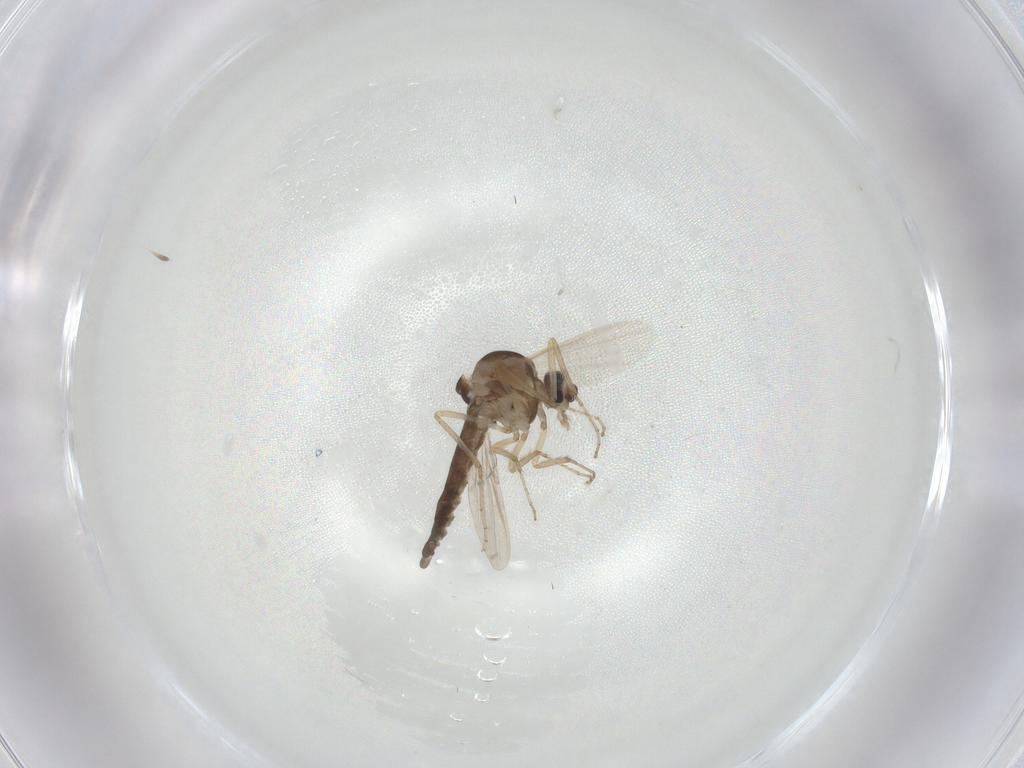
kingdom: Animalia
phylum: Arthropoda
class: Insecta
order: Diptera
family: Ceratopogonidae
